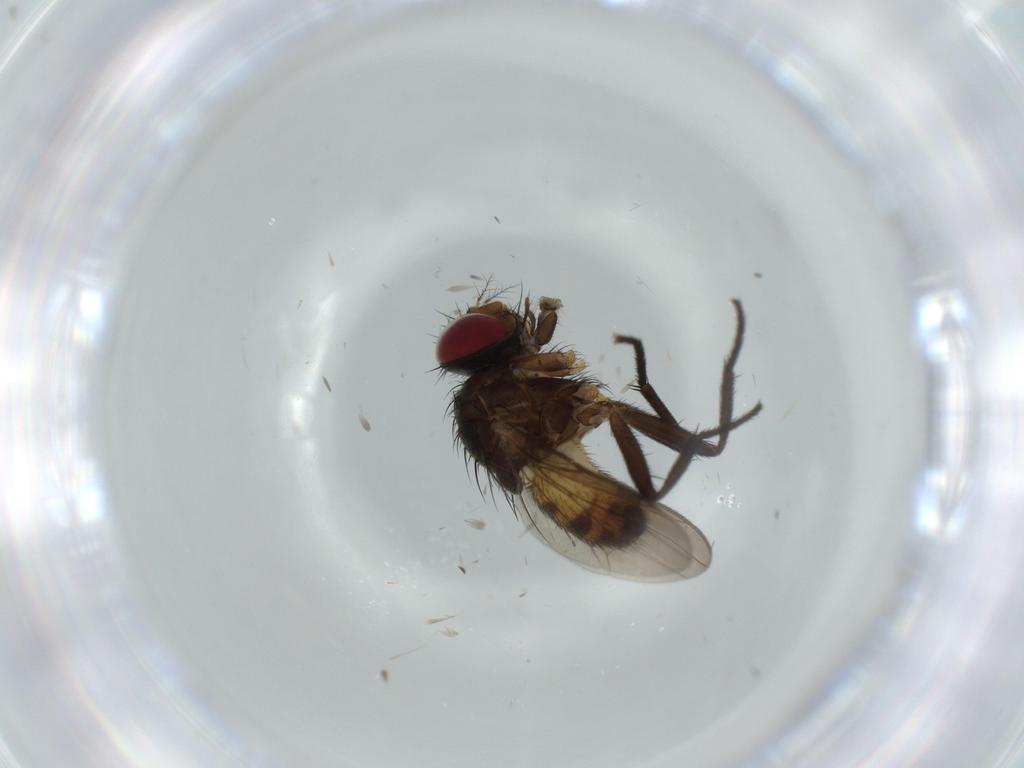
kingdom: Animalia
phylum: Arthropoda
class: Insecta
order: Diptera
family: Anthomyiidae
